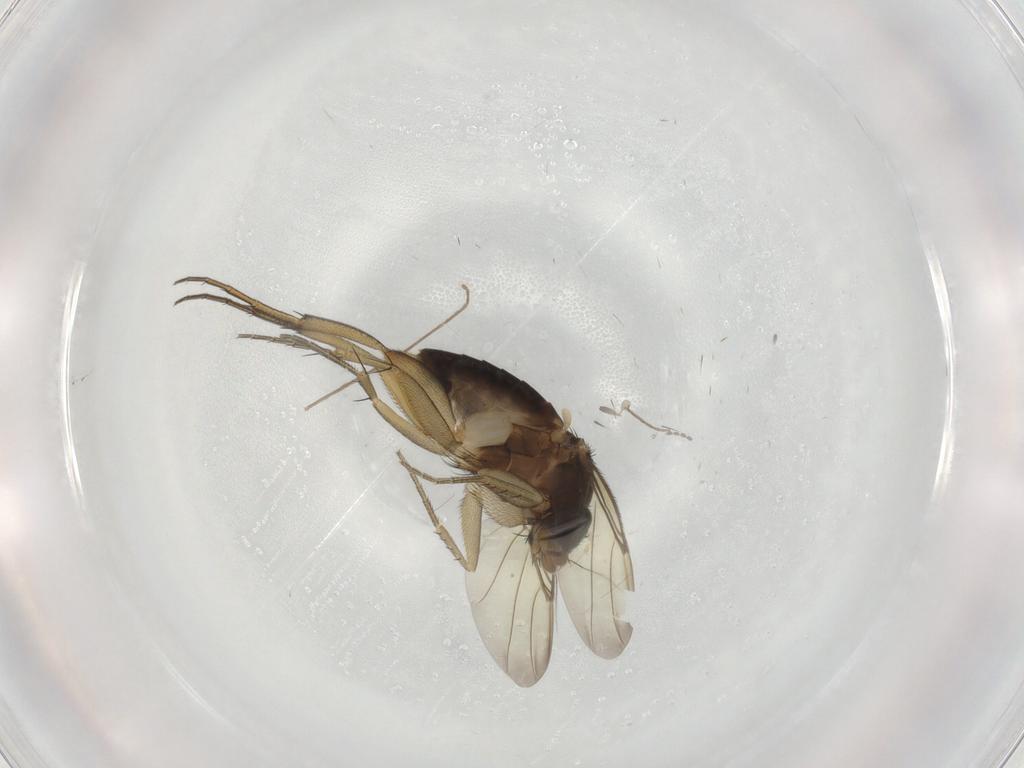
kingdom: Animalia
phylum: Arthropoda
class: Insecta
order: Diptera
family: Phoridae
